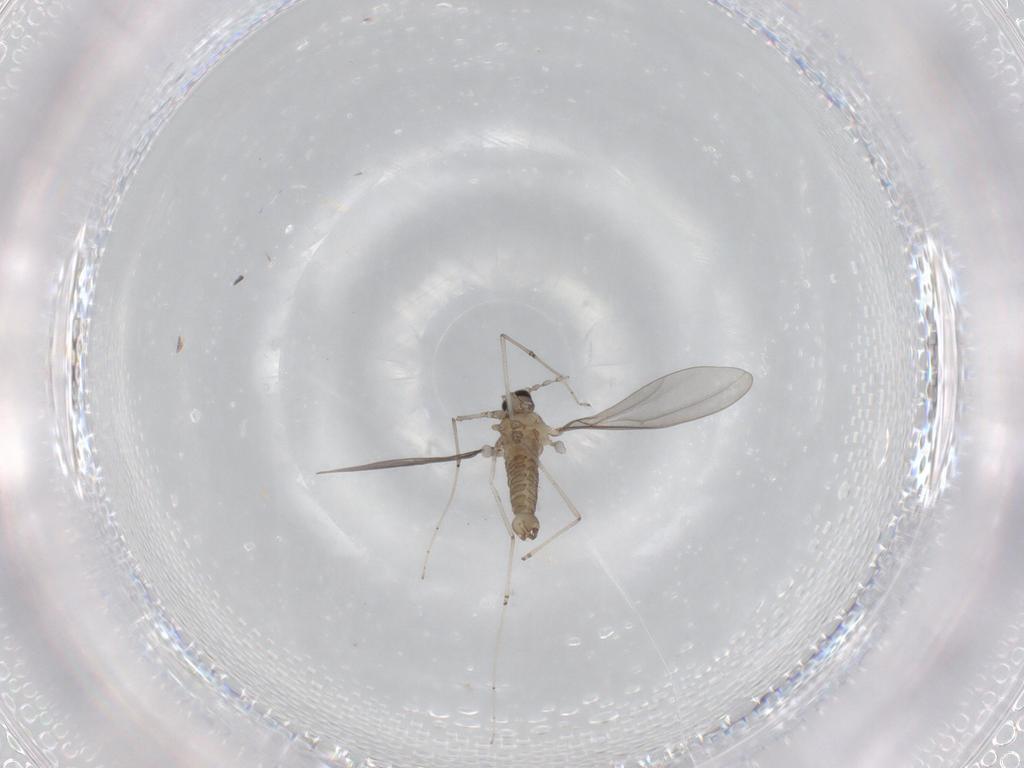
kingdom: Animalia
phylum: Arthropoda
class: Insecta
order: Diptera
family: Cecidomyiidae
